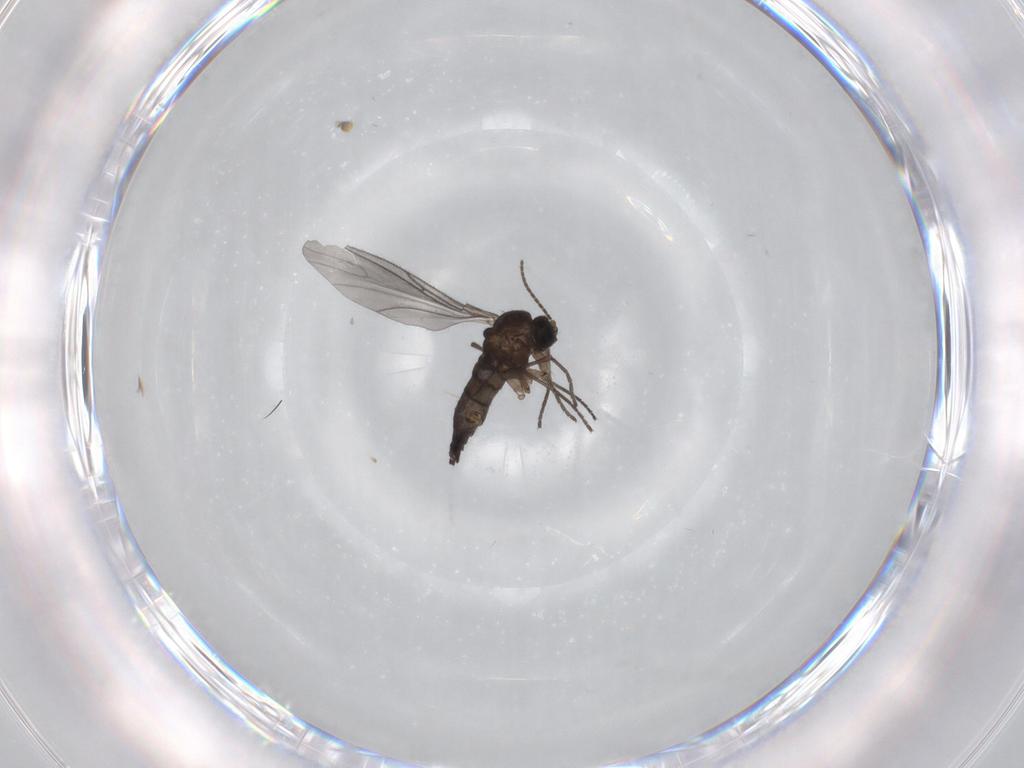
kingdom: Animalia
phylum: Arthropoda
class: Insecta
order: Diptera
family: Sciaridae
